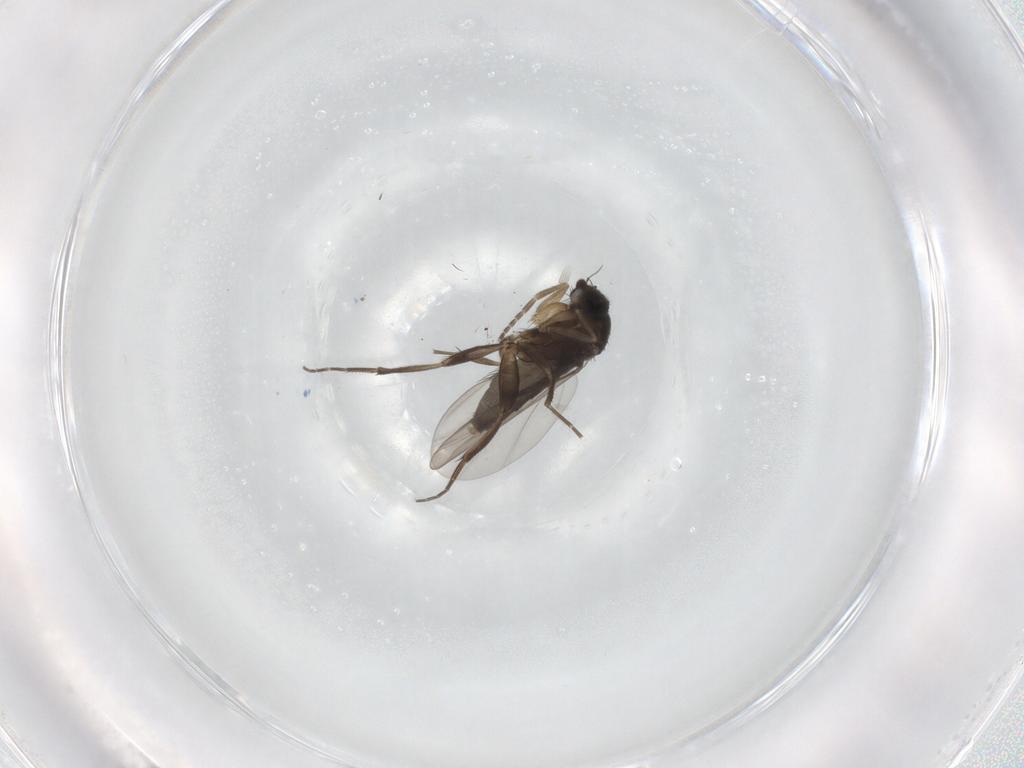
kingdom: Animalia
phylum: Arthropoda
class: Insecta
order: Diptera
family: Phoridae
